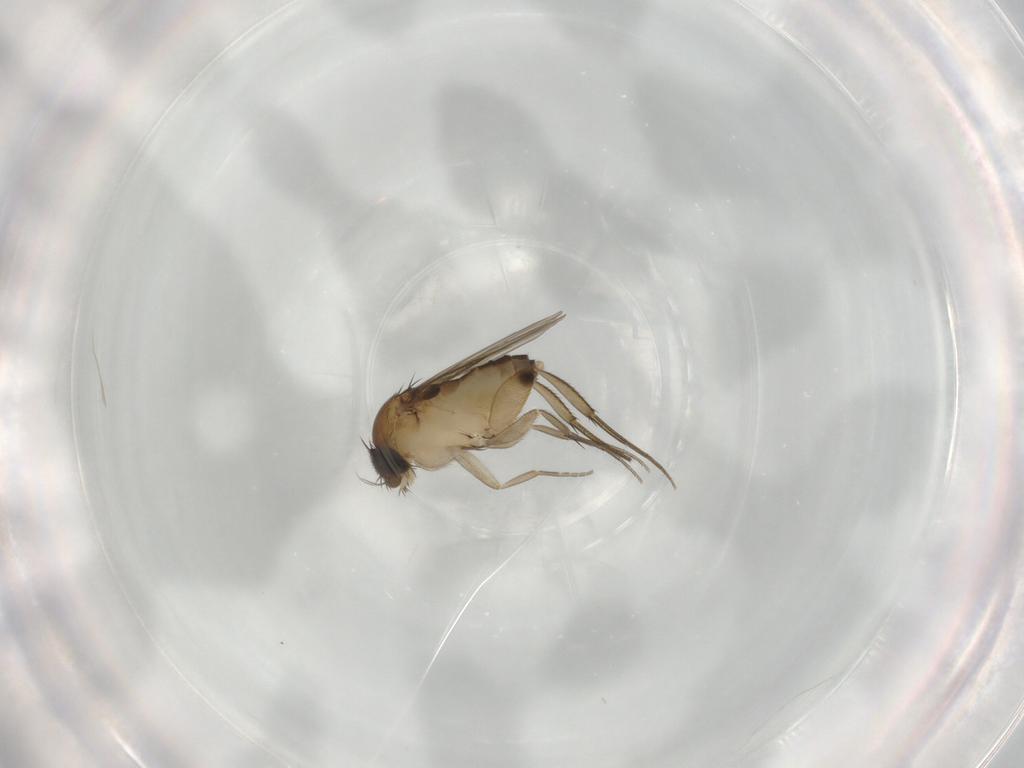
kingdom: Animalia
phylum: Arthropoda
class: Insecta
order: Diptera
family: Phoridae
